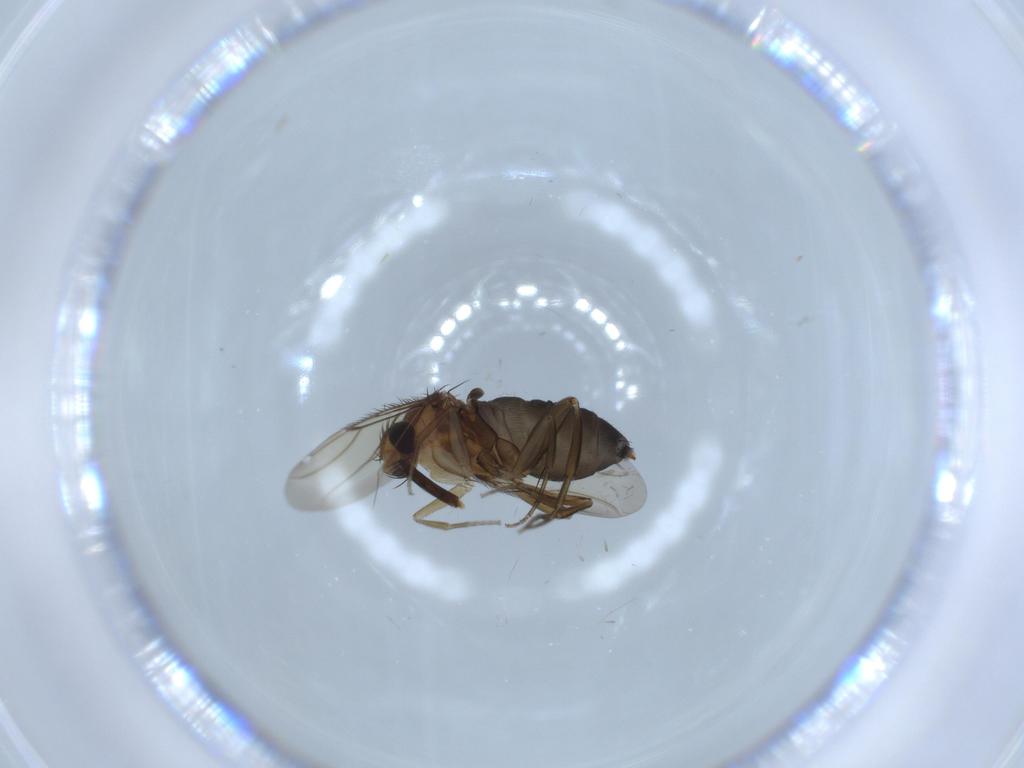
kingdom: Animalia
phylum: Arthropoda
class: Insecta
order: Diptera
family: Phoridae
